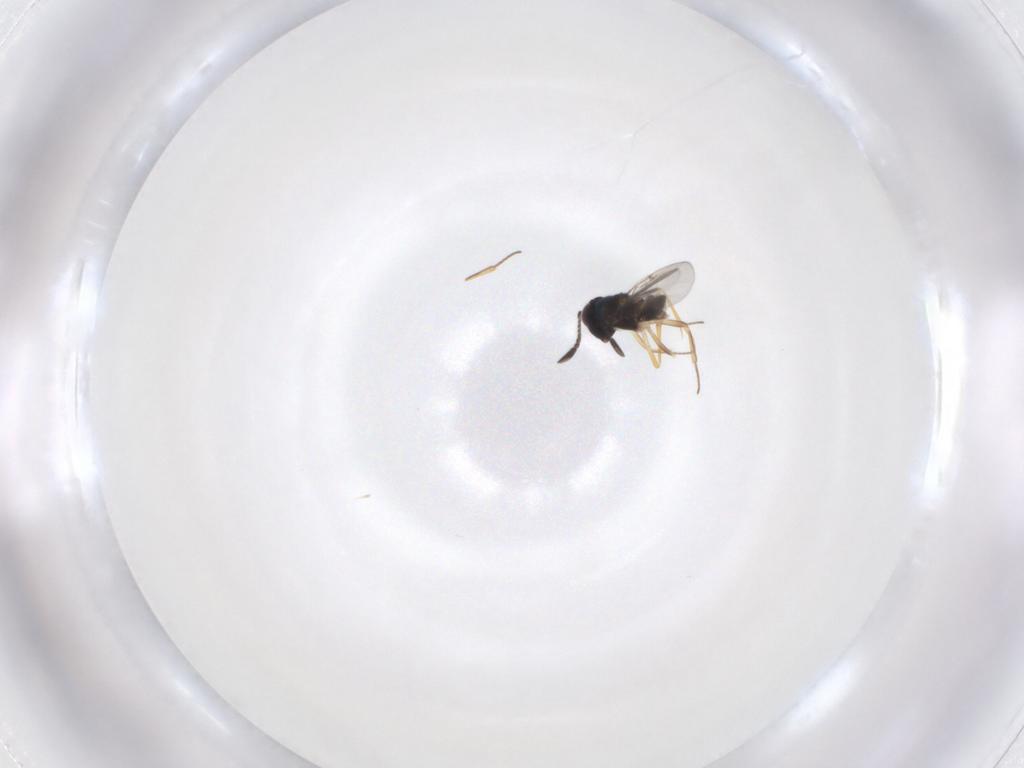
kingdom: Animalia
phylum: Arthropoda
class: Insecta
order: Hymenoptera
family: Encyrtidae
